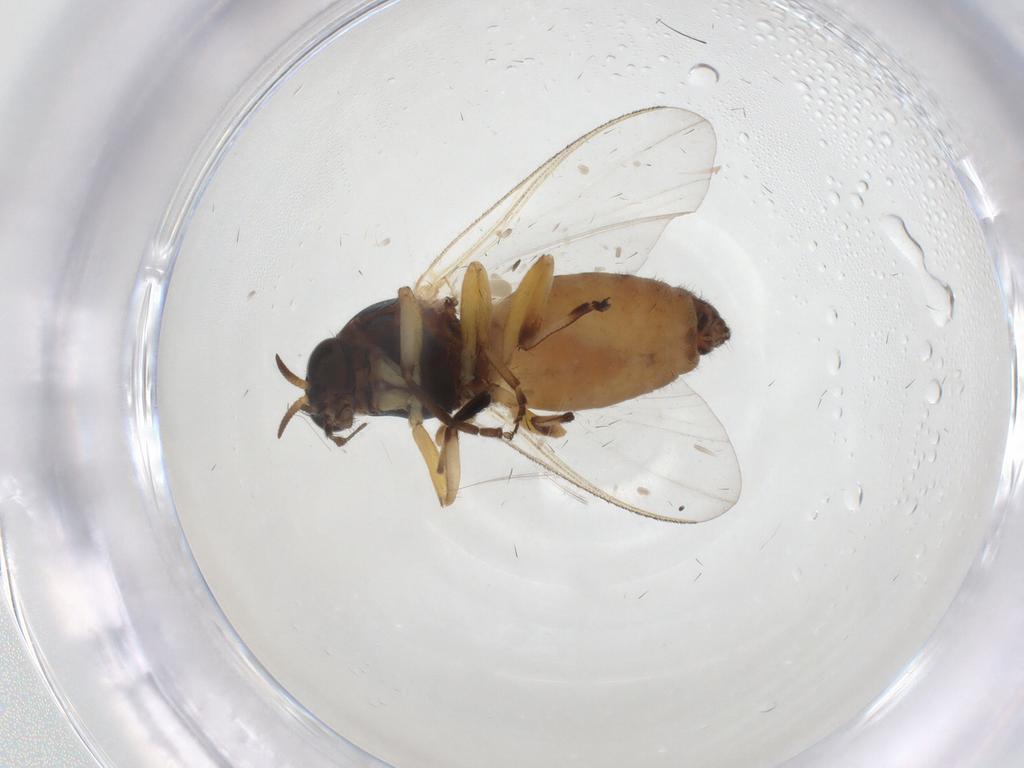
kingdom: Animalia
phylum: Arthropoda
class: Insecta
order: Diptera
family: Simuliidae
